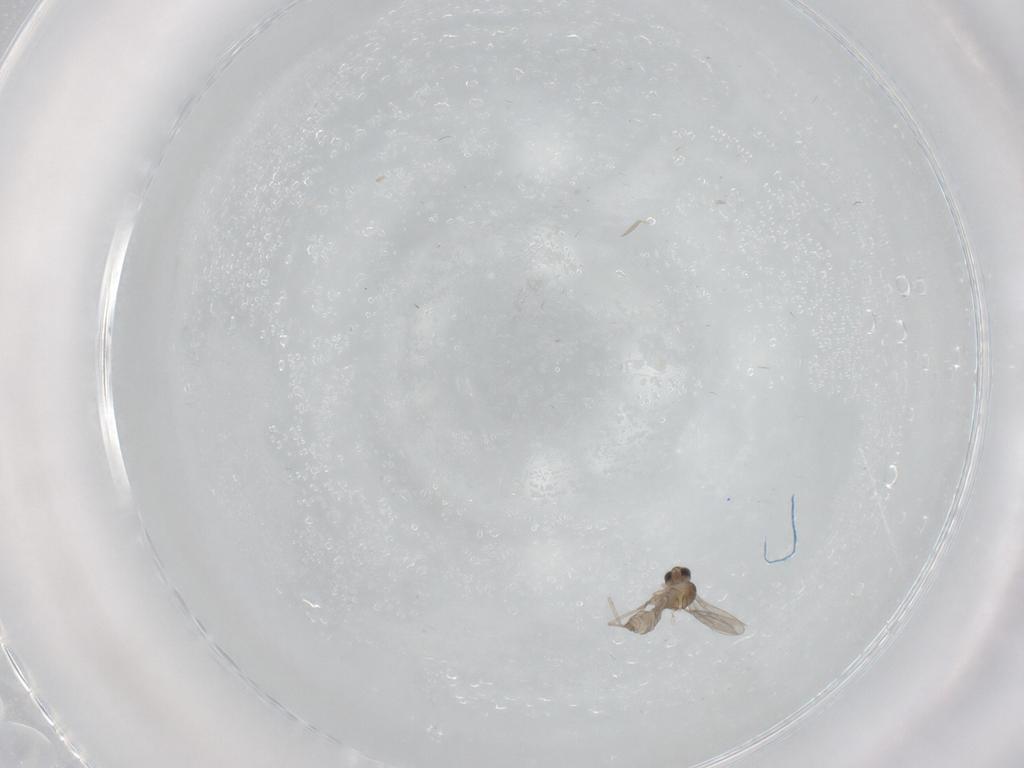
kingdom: Animalia
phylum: Arthropoda
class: Insecta
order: Diptera
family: Cecidomyiidae
